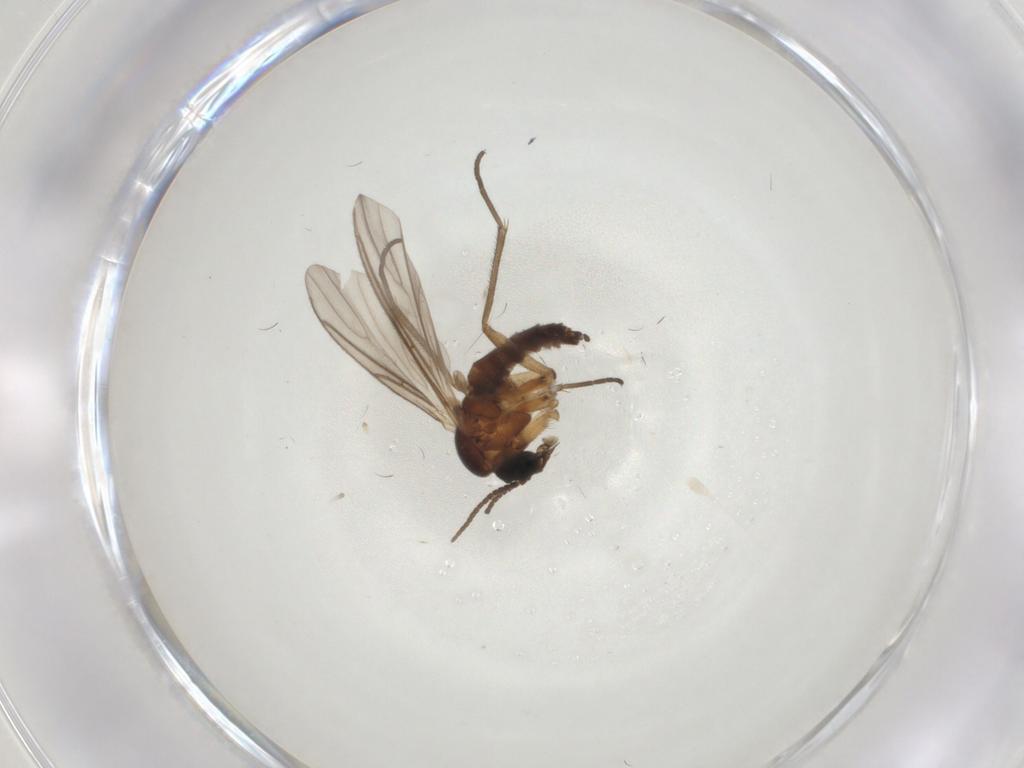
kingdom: Animalia
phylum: Arthropoda
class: Insecta
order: Diptera
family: Sciaridae
